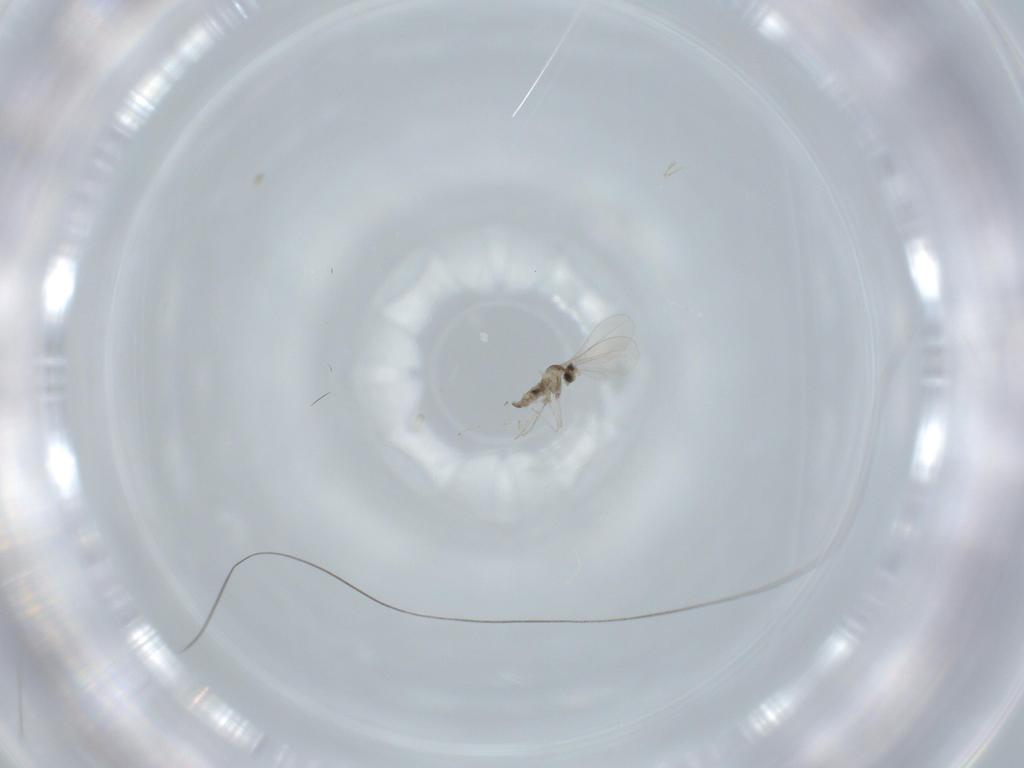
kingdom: Animalia
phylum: Arthropoda
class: Insecta
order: Diptera
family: Cecidomyiidae
